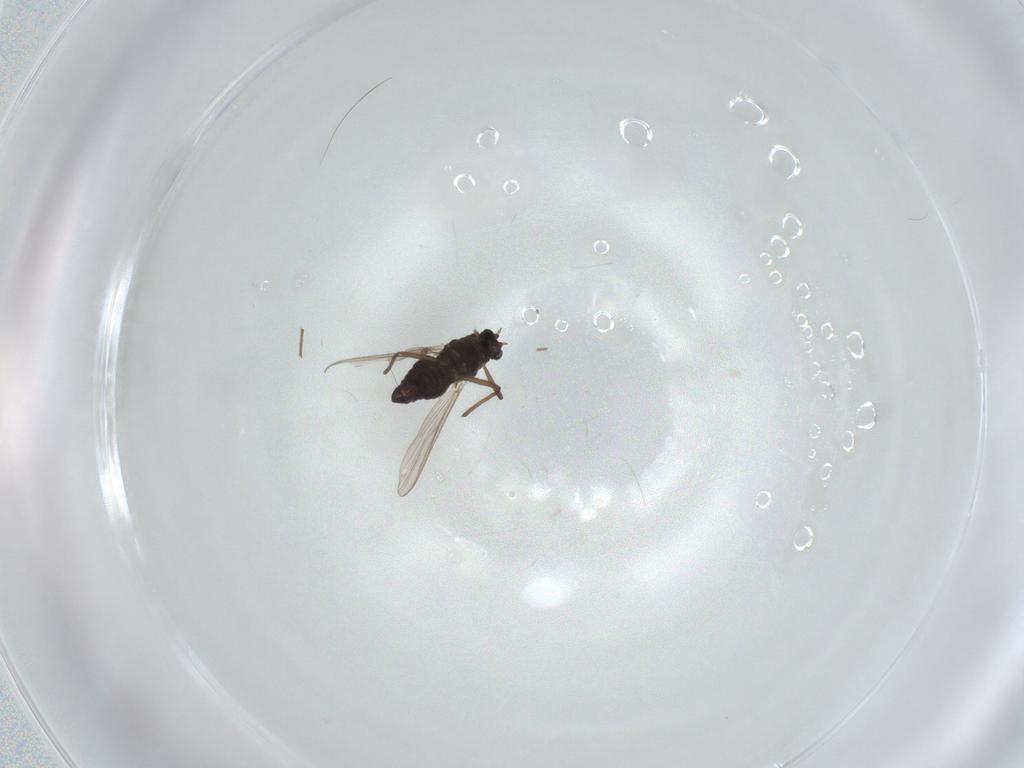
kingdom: Animalia
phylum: Arthropoda
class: Insecta
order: Diptera
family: Chironomidae
